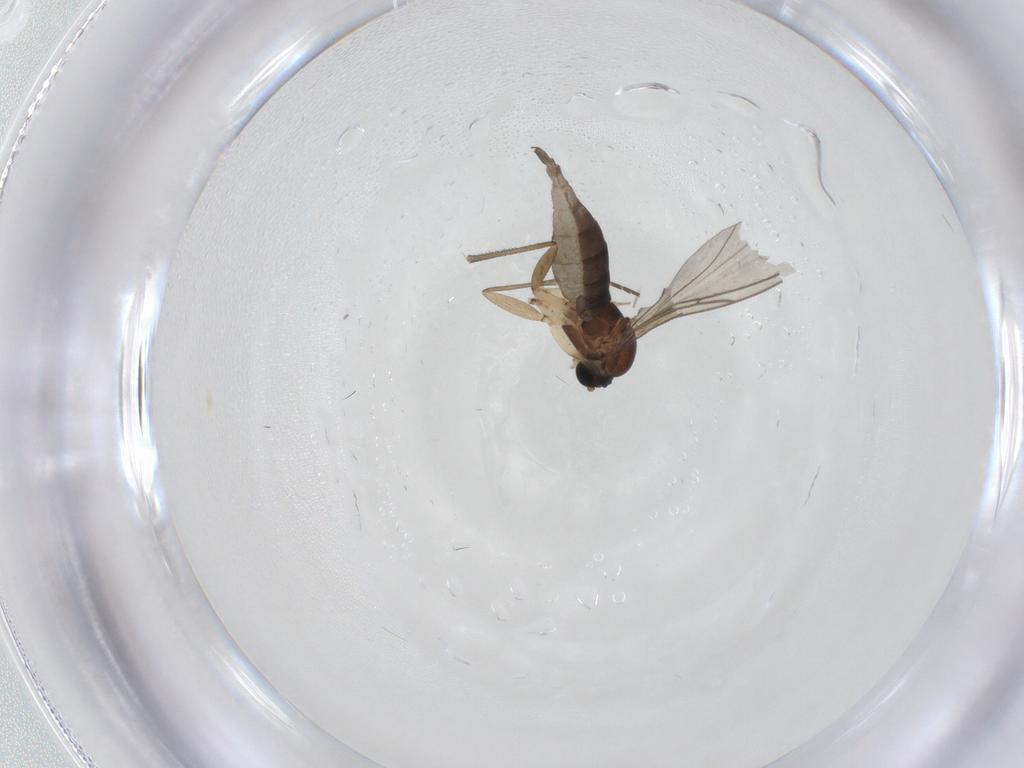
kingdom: Animalia
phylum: Arthropoda
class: Insecta
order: Diptera
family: Sciaridae
